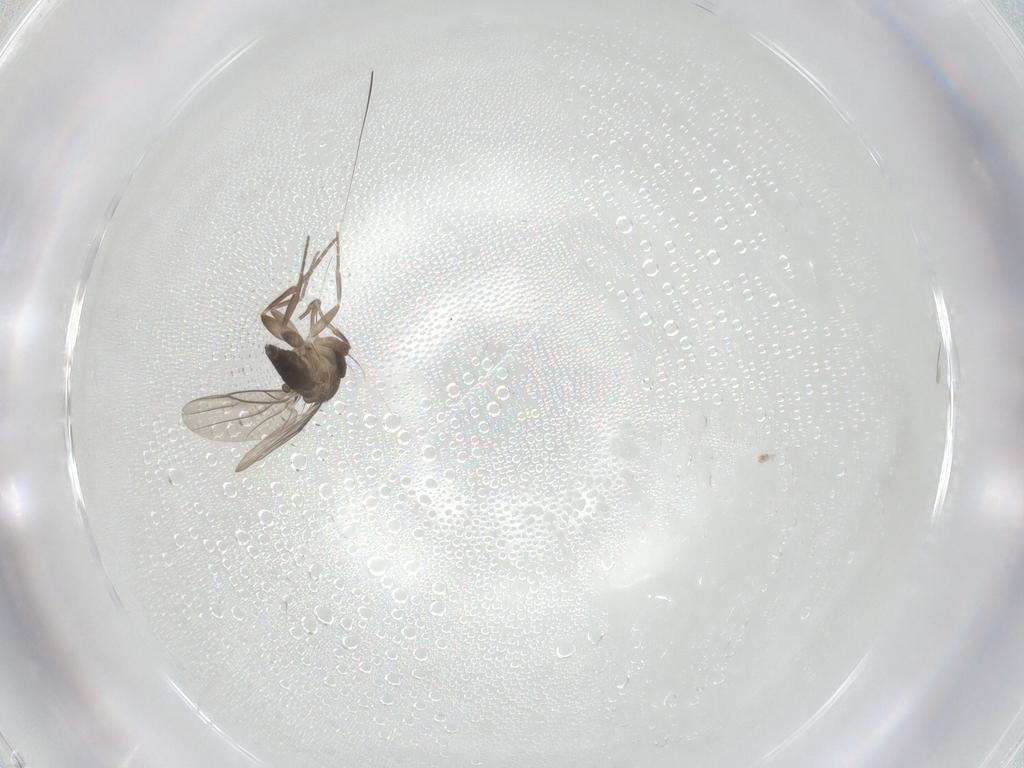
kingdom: Animalia
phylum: Arthropoda
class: Insecta
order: Diptera
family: Phoridae
